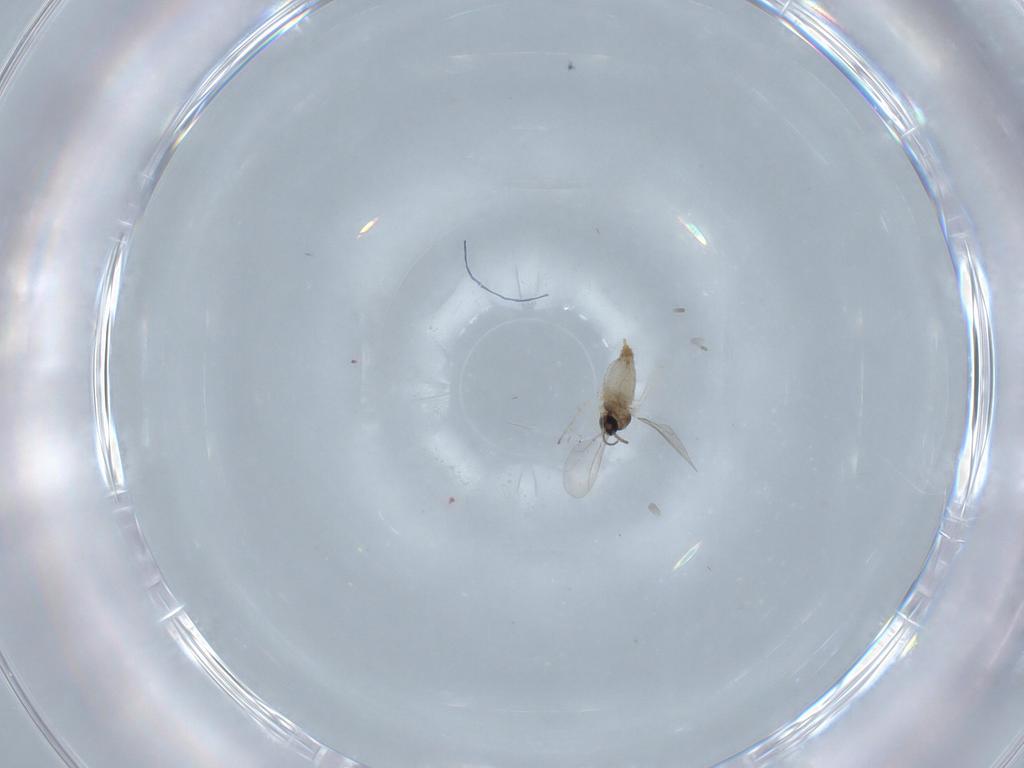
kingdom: Animalia
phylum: Arthropoda
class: Insecta
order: Diptera
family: Cecidomyiidae
